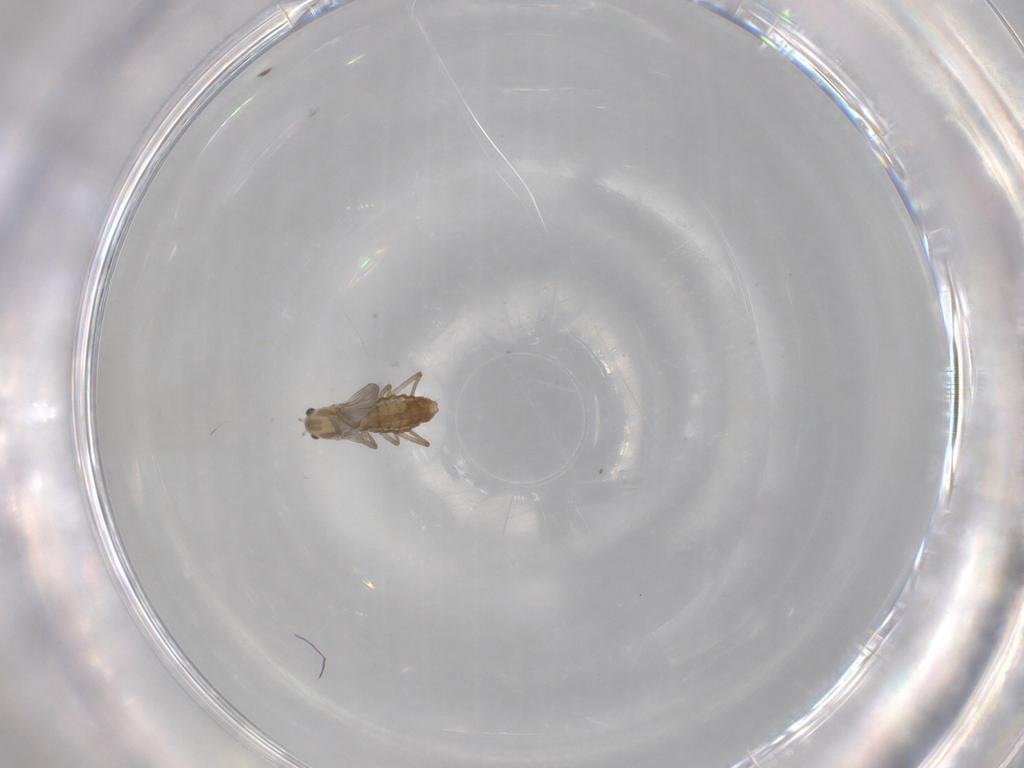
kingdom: Animalia
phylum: Arthropoda
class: Insecta
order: Diptera
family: Chironomidae
